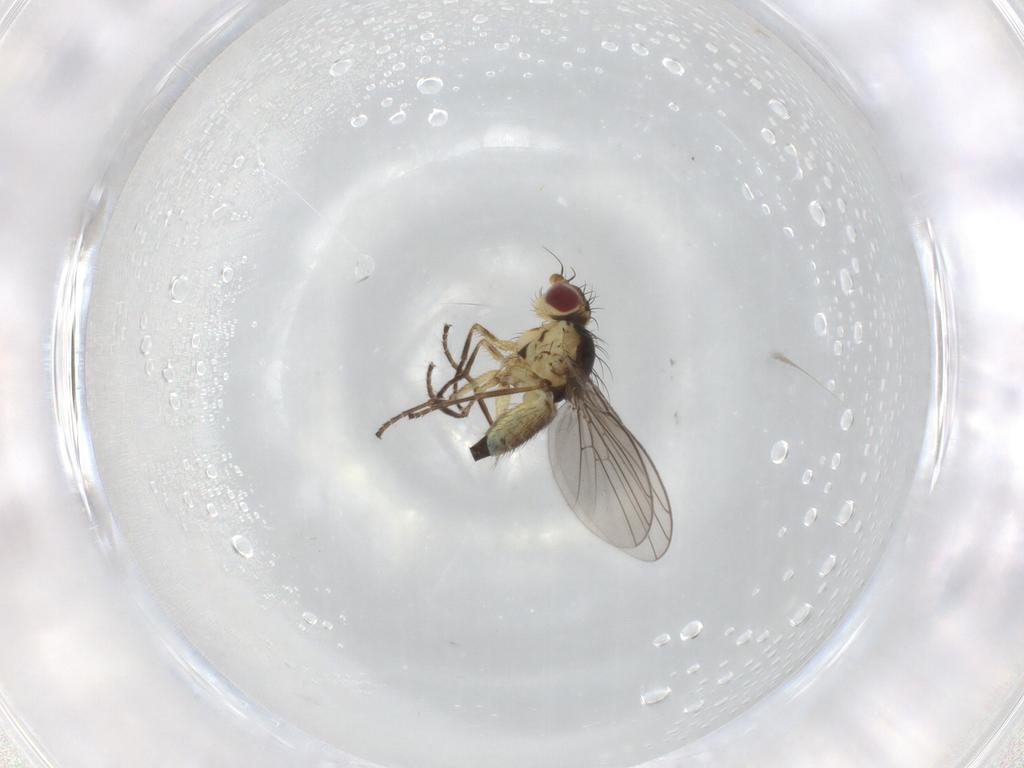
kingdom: Animalia
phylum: Arthropoda
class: Insecta
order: Diptera
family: Agromyzidae
